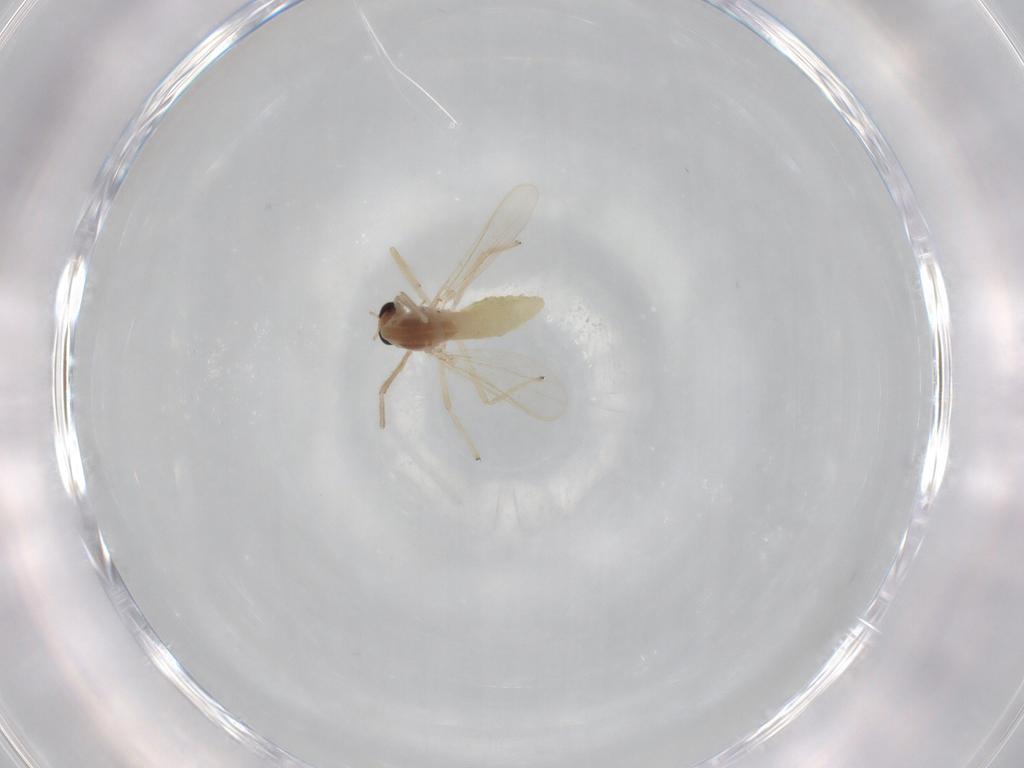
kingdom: Animalia
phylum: Arthropoda
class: Insecta
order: Diptera
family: Chironomidae
